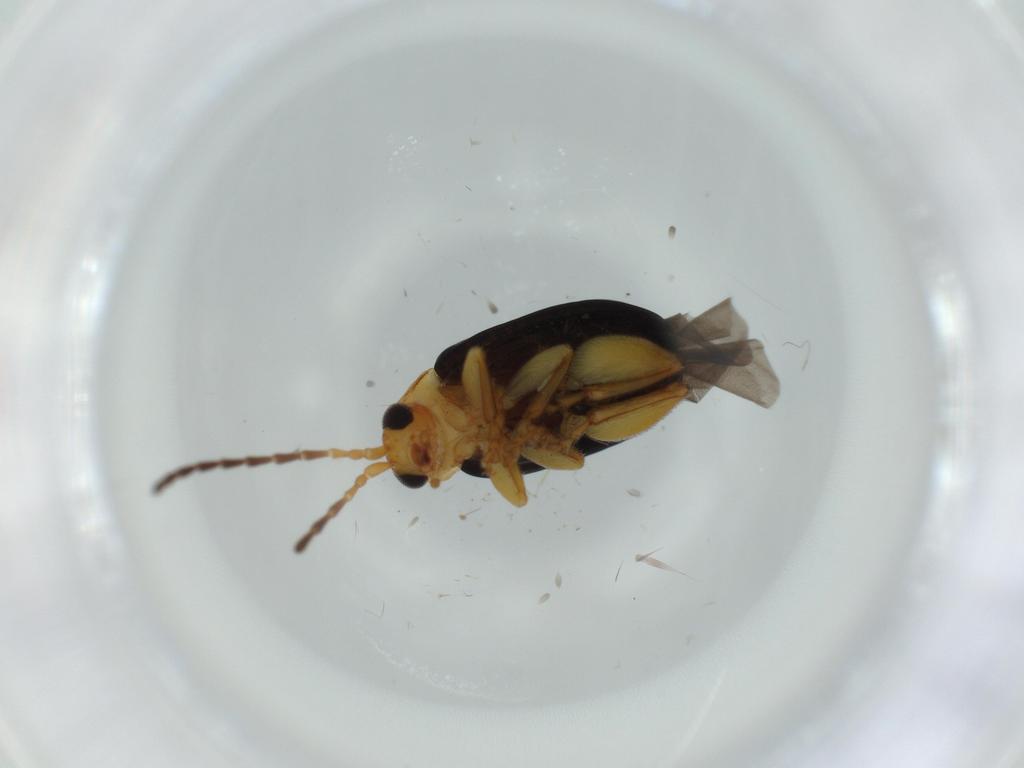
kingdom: Animalia
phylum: Arthropoda
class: Insecta
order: Coleoptera
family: Chrysomelidae
